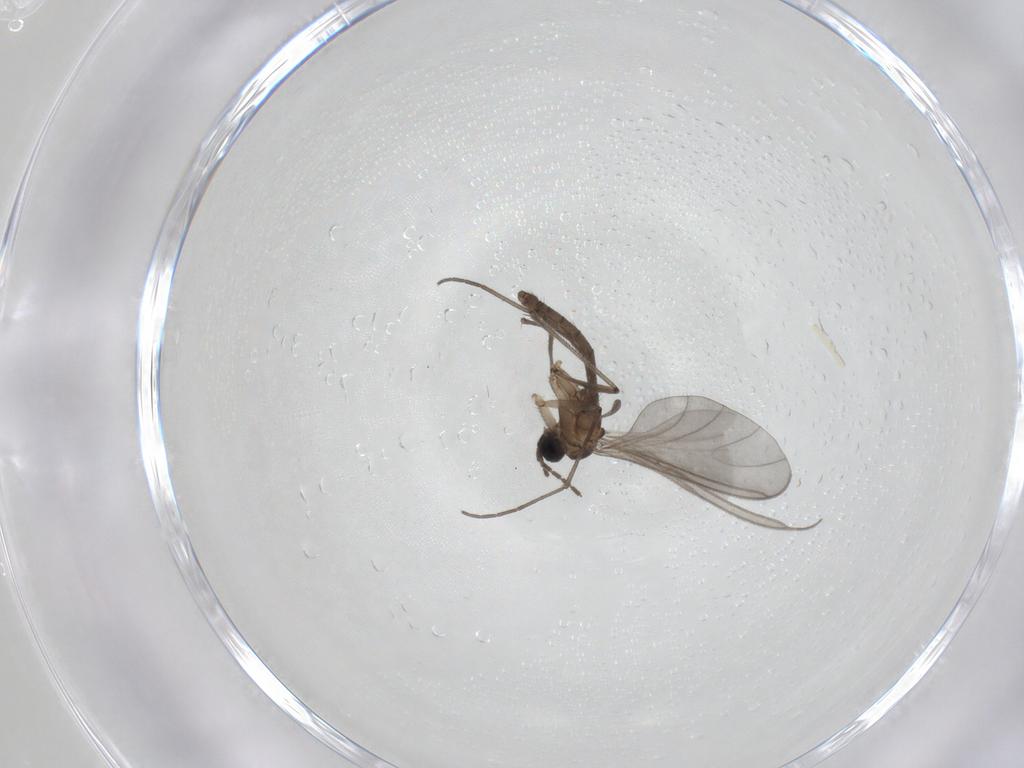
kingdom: Animalia
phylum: Arthropoda
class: Insecta
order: Diptera
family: Sciaridae
